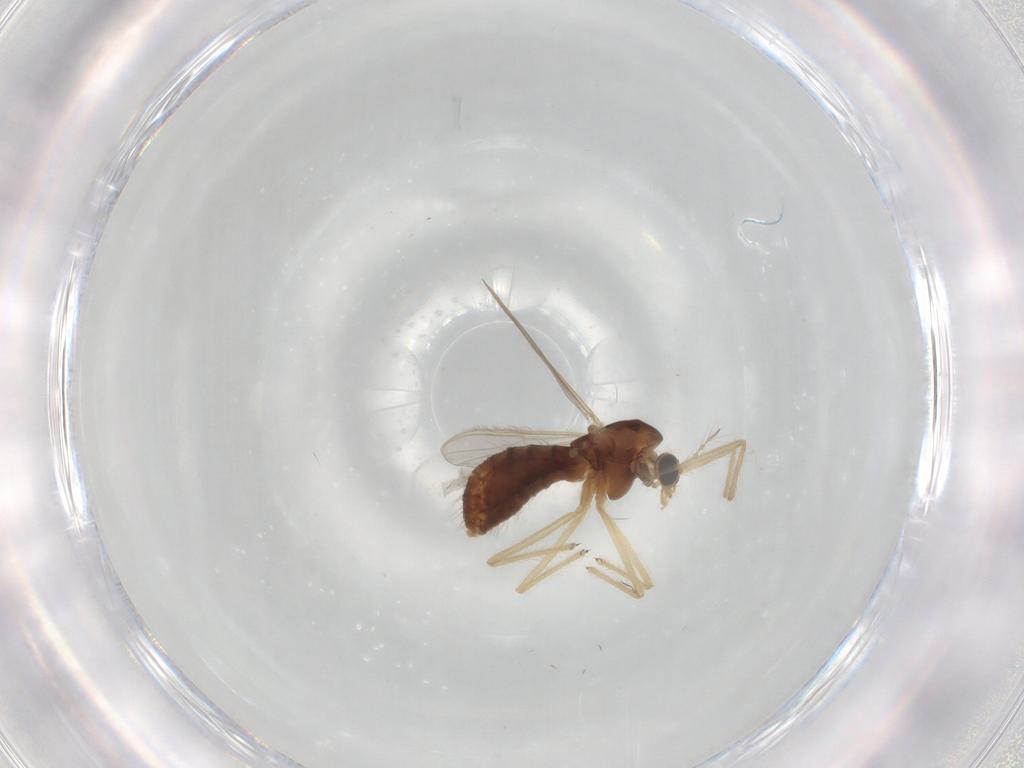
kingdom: Animalia
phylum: Arthropoda
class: Insecta
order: Diptera
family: Chironomidae
